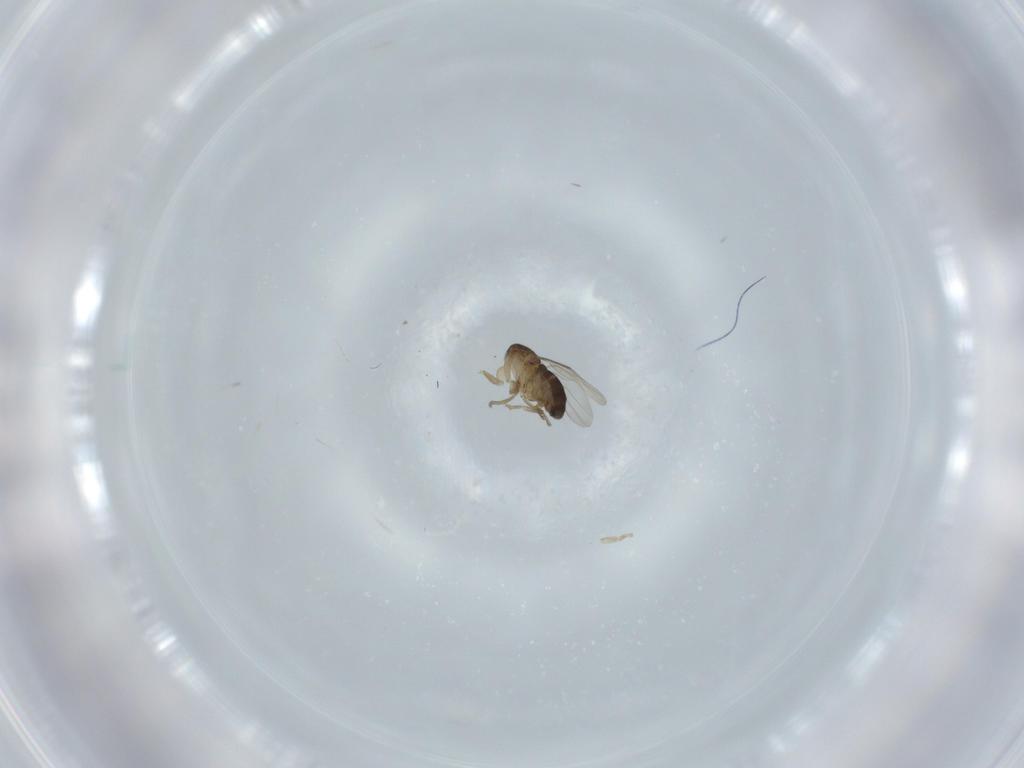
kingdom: Animalia
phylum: Arthropoda
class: Insecta
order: Diptera
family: Phoridae
